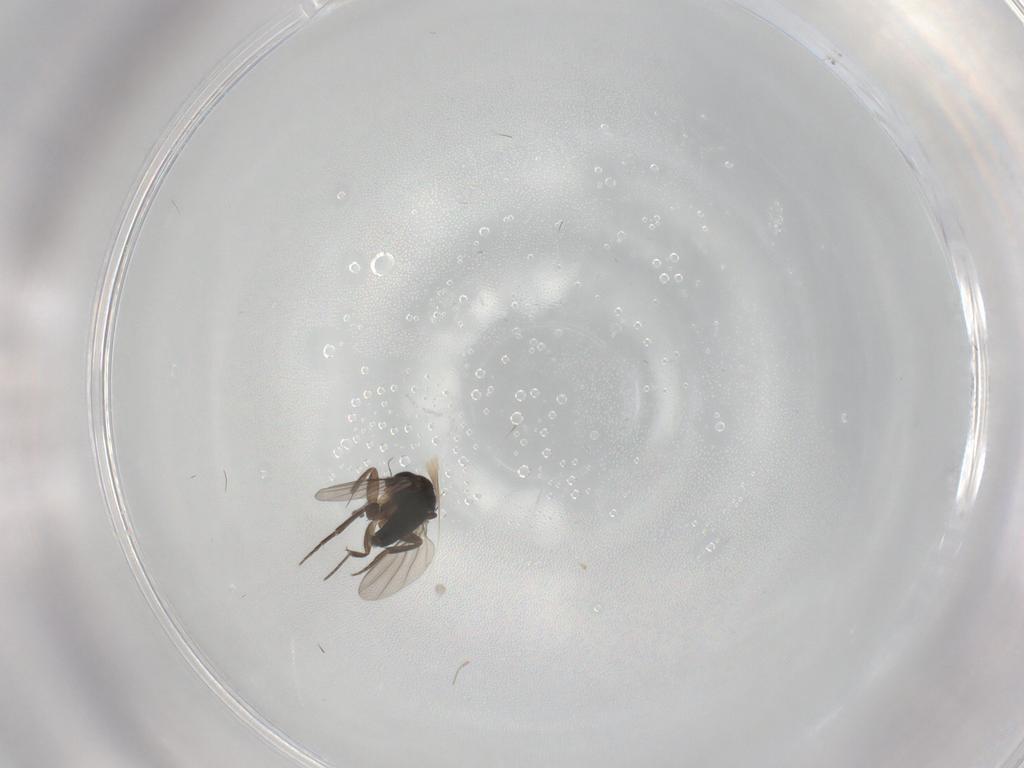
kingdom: Animalia
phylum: Arthropoda
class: Insecta
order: Diptera
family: Phoridae
